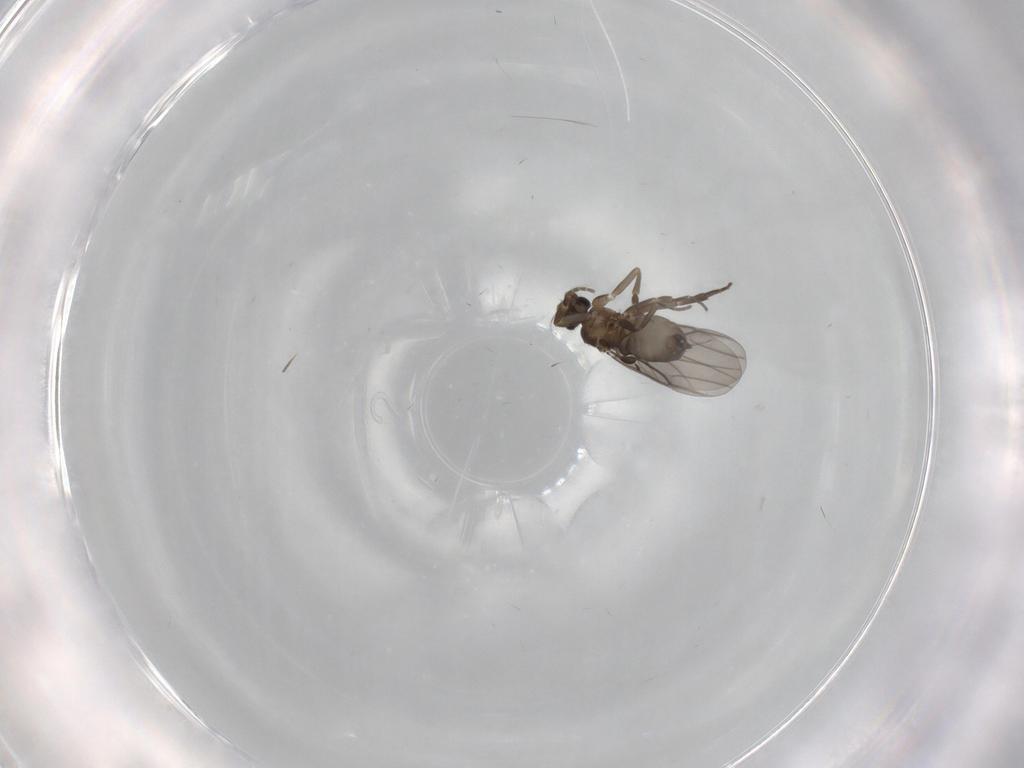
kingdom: Animalia
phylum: Arthropoda
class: Insecta
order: Diptera
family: Phoridae
